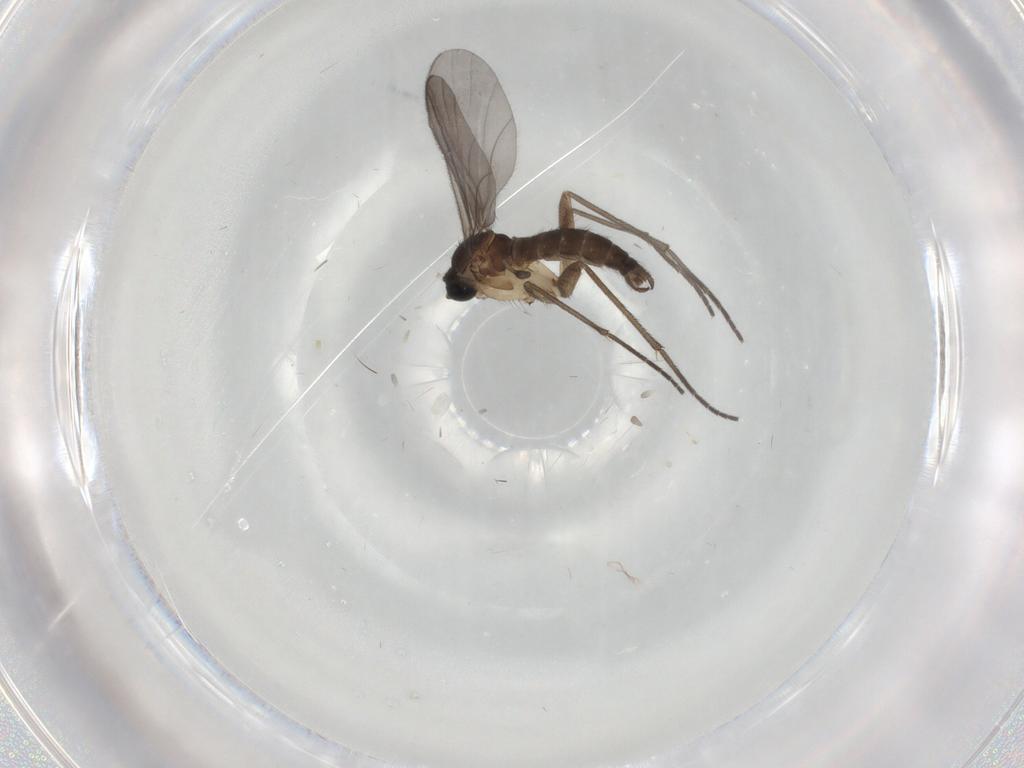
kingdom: Animalia
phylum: Arthropoda
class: Insecta
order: Diptera
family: Sciaridae
